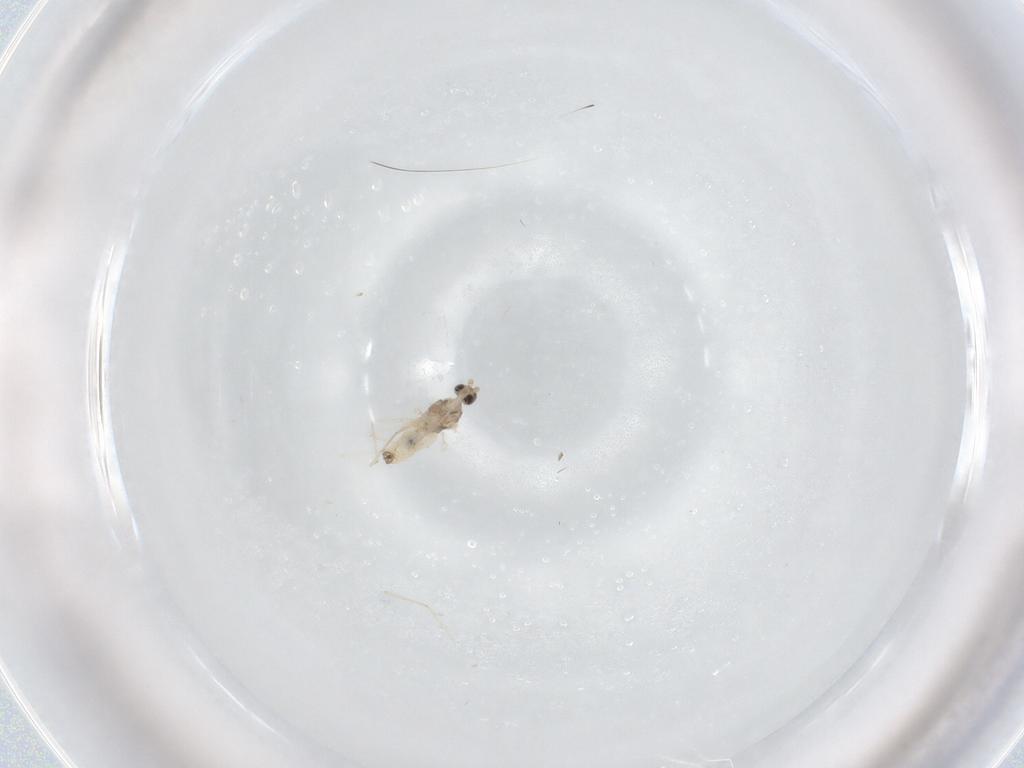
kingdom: Animalia
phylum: Arthropoda
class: Insecta
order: Diptera
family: Cecidomyiidae
